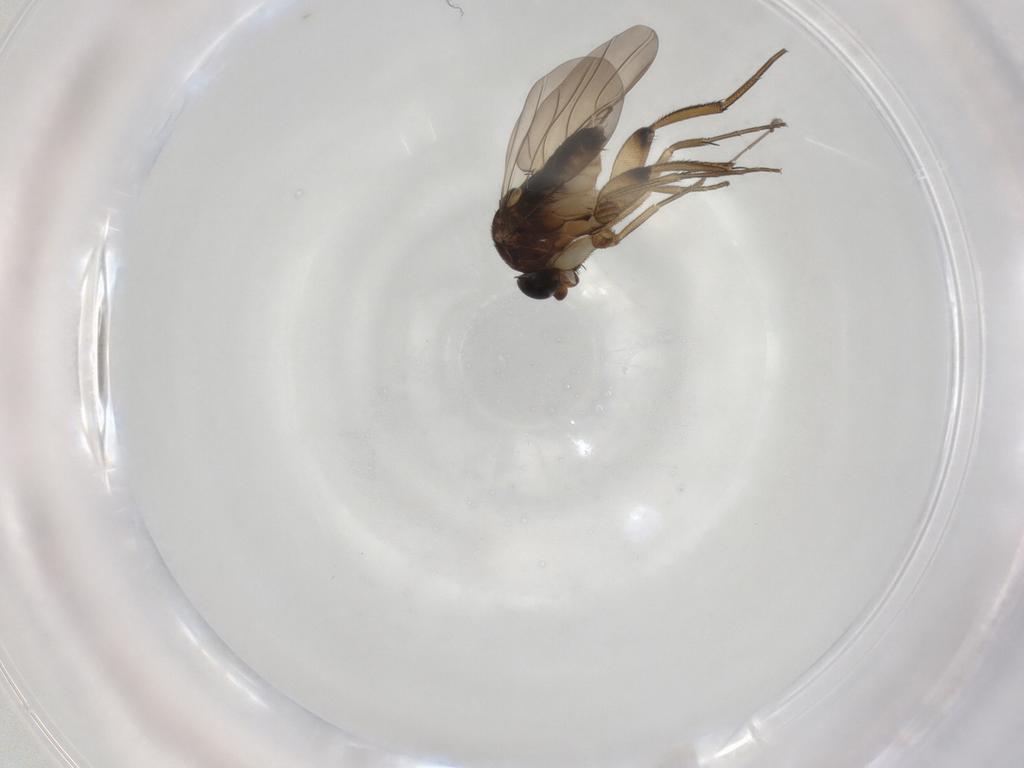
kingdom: Animalia
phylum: Arthropoda
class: Insecta
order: Diptera
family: Phoridae
